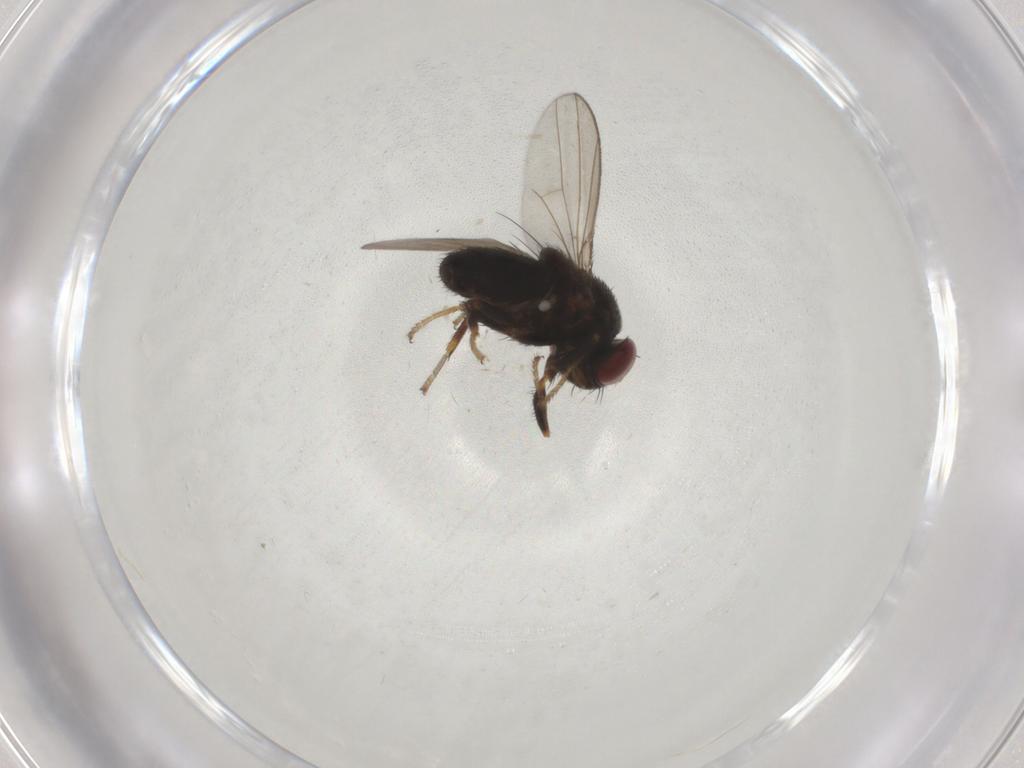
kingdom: Animalia
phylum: Arthropoda
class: Insecta
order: Diptera
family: Ephydridae
